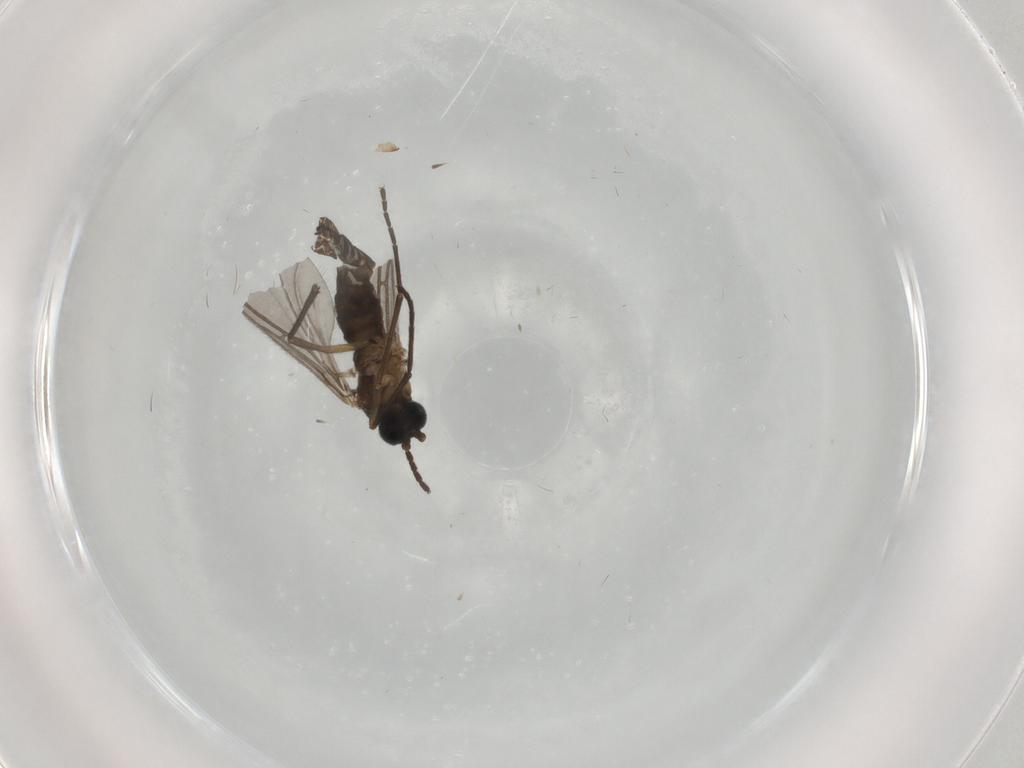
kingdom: Animalia
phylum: Arthropoda
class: Insecta
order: Diptera
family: Sciaridae
